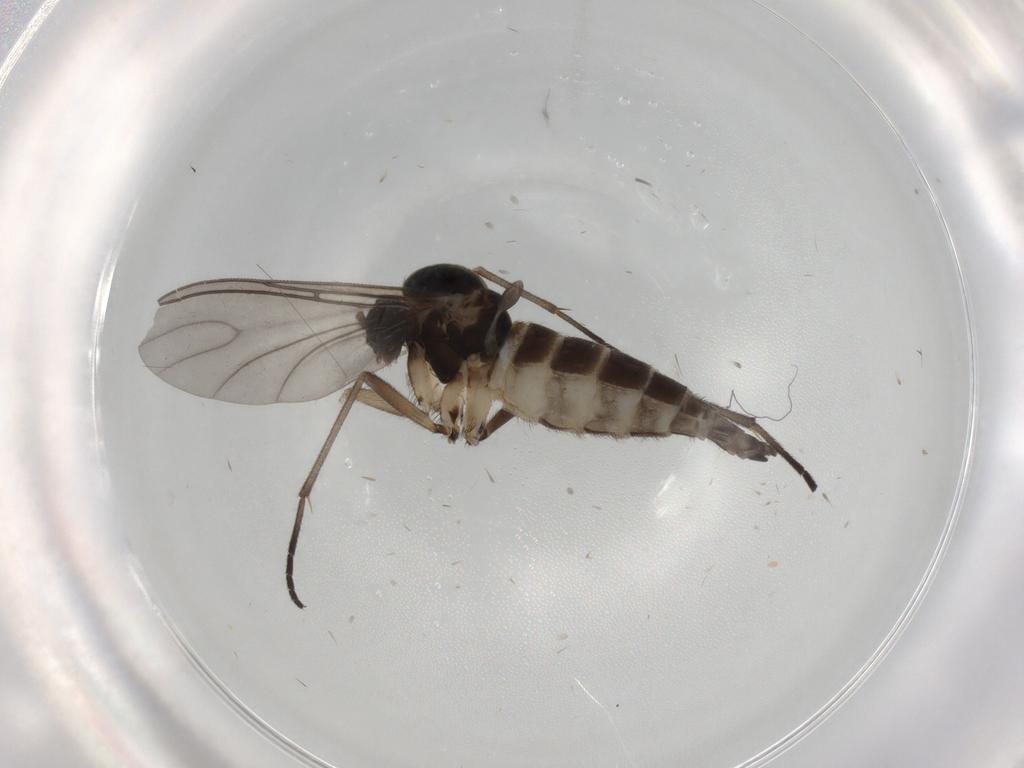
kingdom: Animalia
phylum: Arthropoda
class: Insecta
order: Diptera
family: Sciaridae
